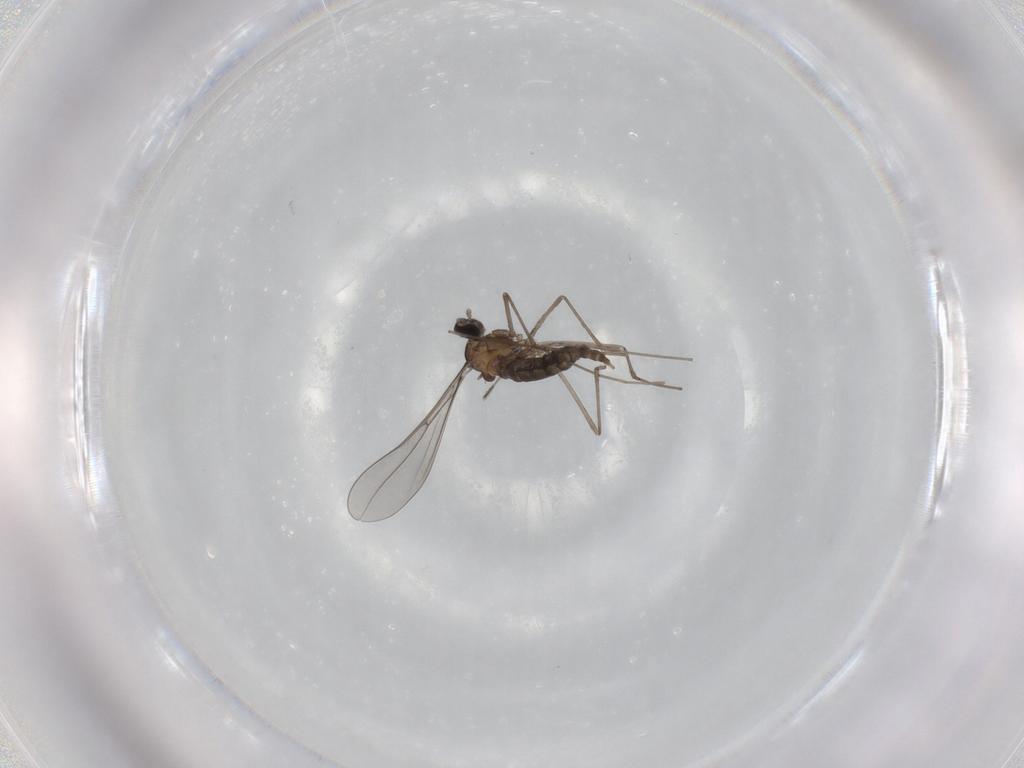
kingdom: Animalia
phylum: Arthropoda
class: Insecta
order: Diptera
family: Cecidomyiidae
